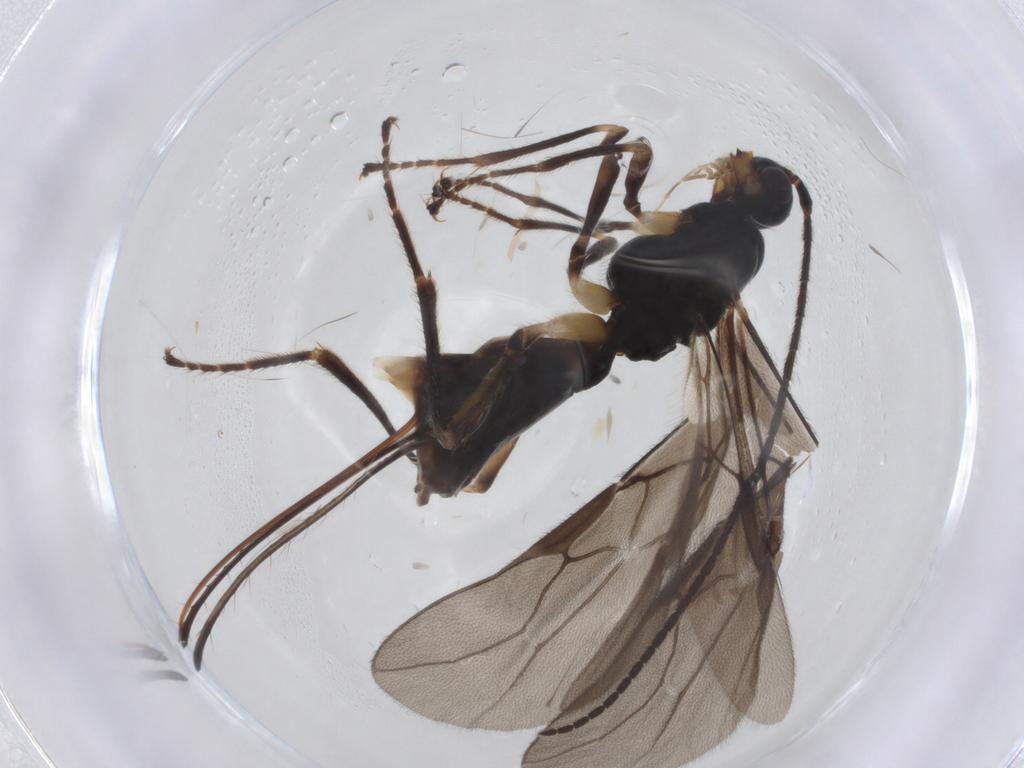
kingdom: Animalia
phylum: Arthropoda
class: Insecta
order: Hymenoptera
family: Braconidae
